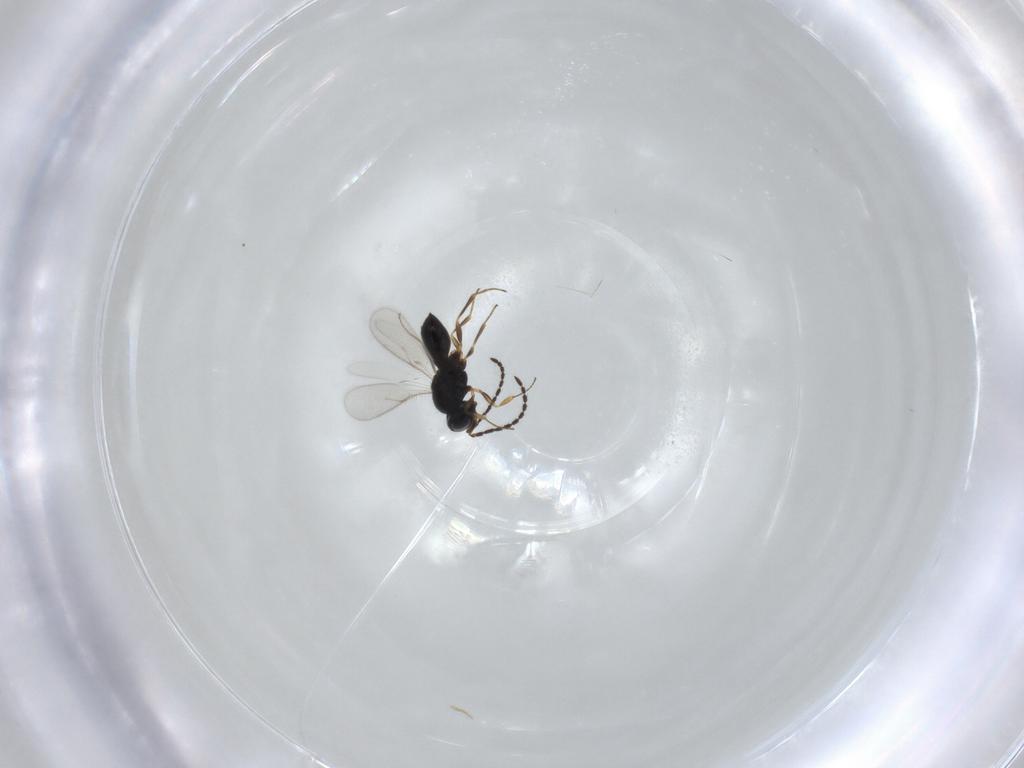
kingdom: Animalia
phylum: Arthropoda
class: Insecta
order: Hymenoptera
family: Scelionidae
